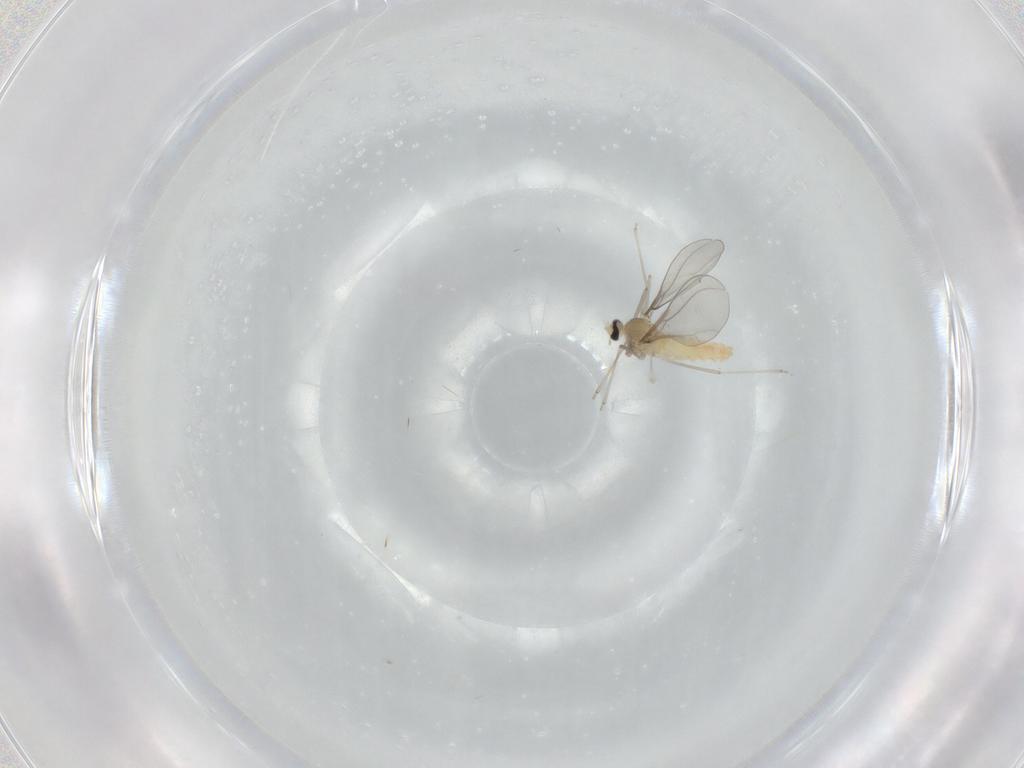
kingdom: Animalia
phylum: Arthropoda
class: Insecta
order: Diptera
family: Cecidomyiidae
